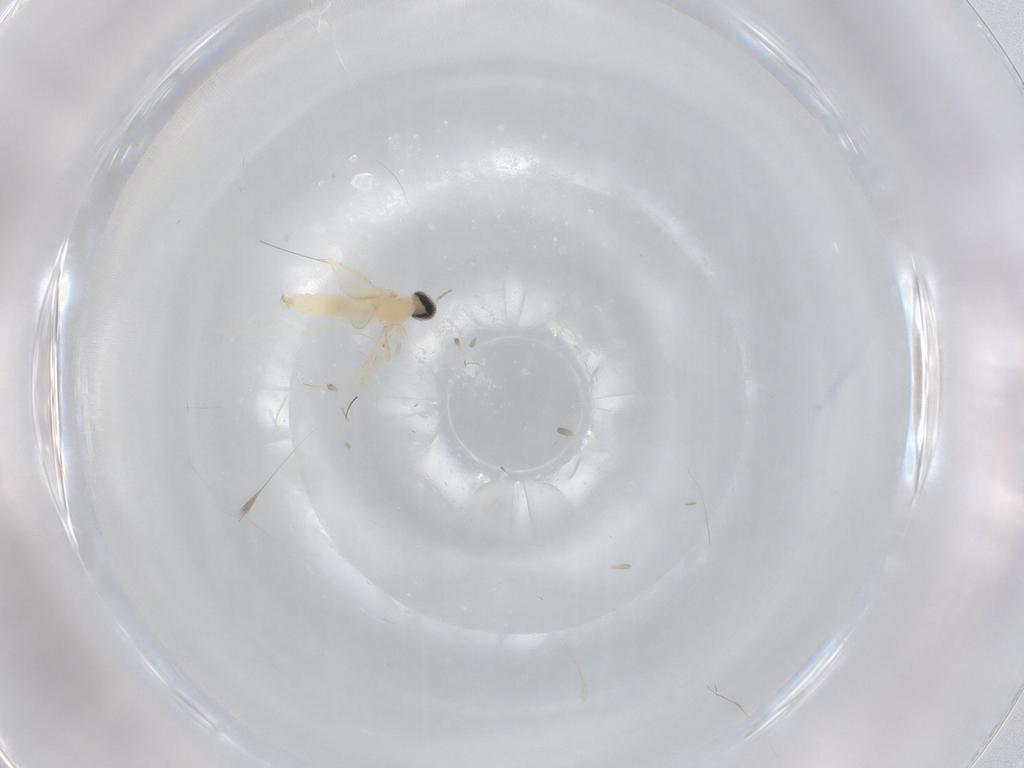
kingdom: Animalia
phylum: Arthropoda
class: Insecta
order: Diptera
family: Cecidomyiidae
